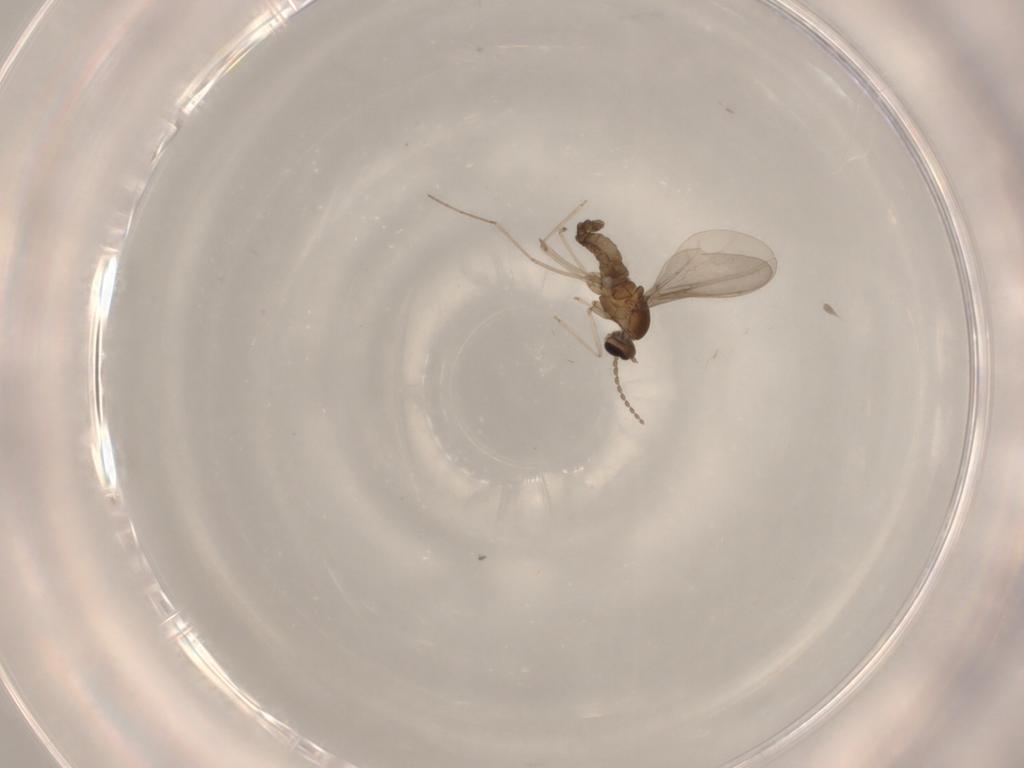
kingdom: Animalia
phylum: Arthropoda
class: Insecta
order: Diptera
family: Cecidomyiidae
